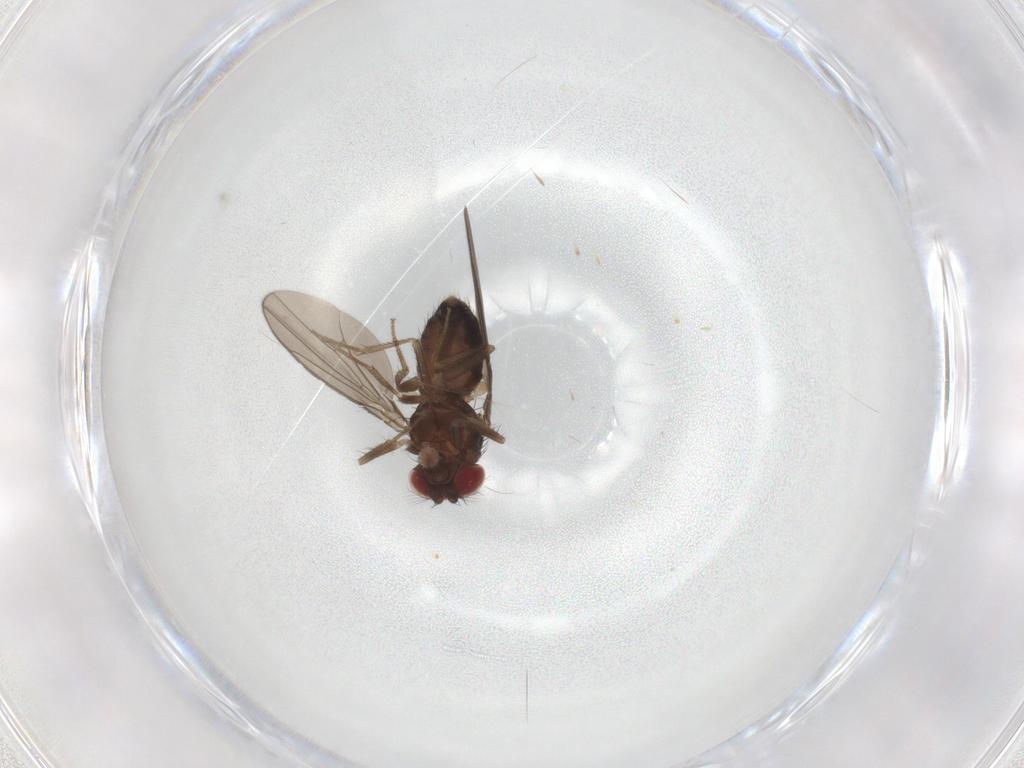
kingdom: Animalia
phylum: Arthropoda
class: Insecta
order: Diptera
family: Drosophilidae
